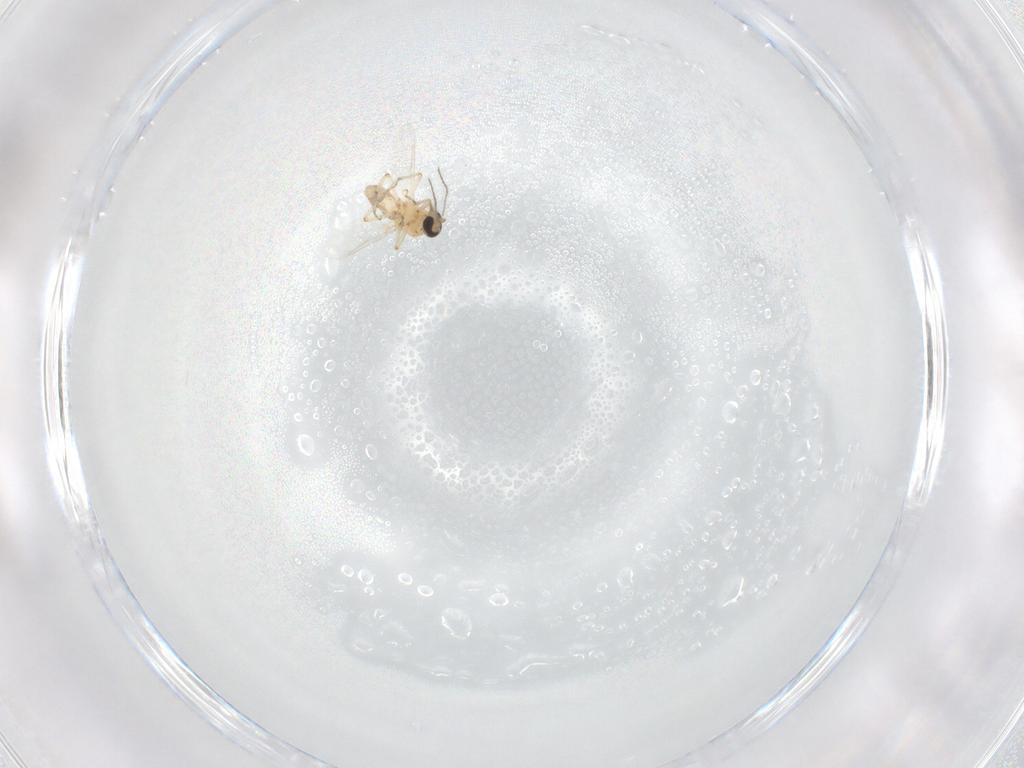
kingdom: Animalia
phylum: Arthropoda
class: Insecta
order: Diptera
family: Ceratopogonidae
